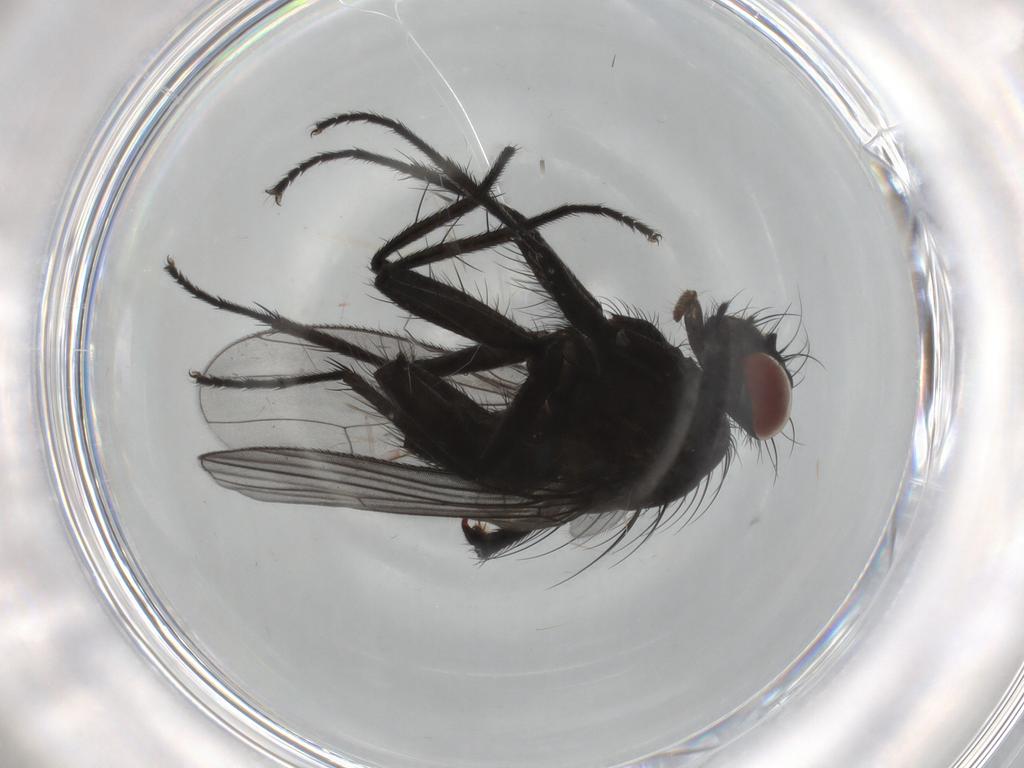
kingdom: Animalia
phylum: Arthropoda
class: Insecta
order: Diptera
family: Muscidae
